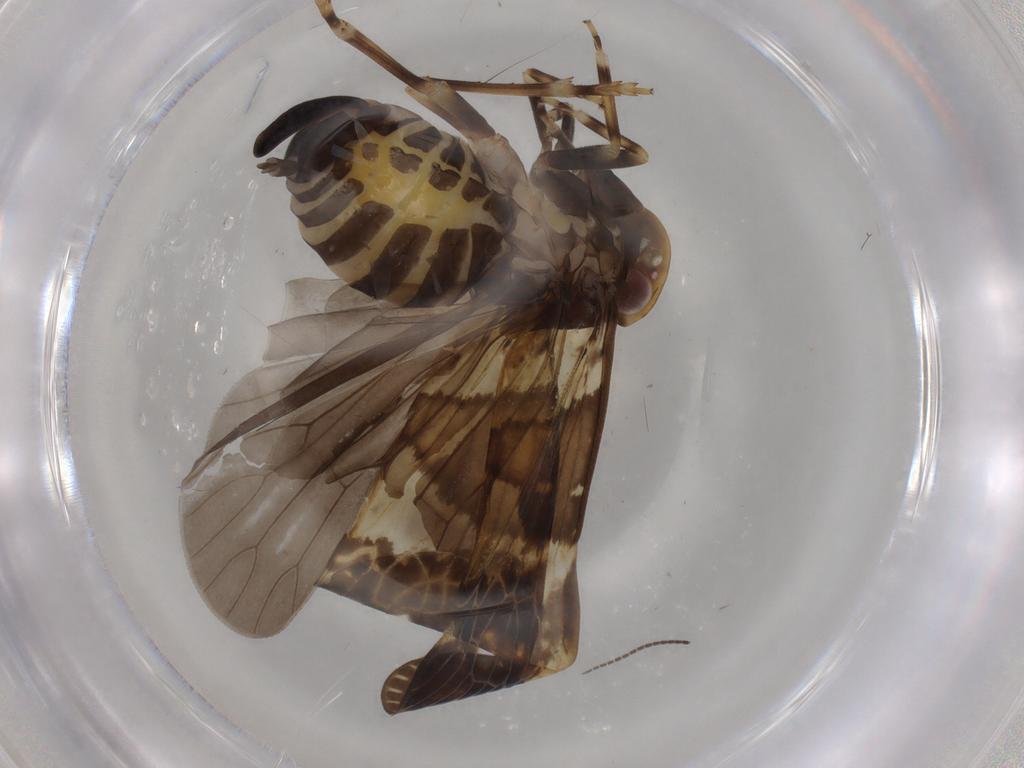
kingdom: Animalia
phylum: Arthropoda
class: Insecta
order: Hemiptera
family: Cixiidae
